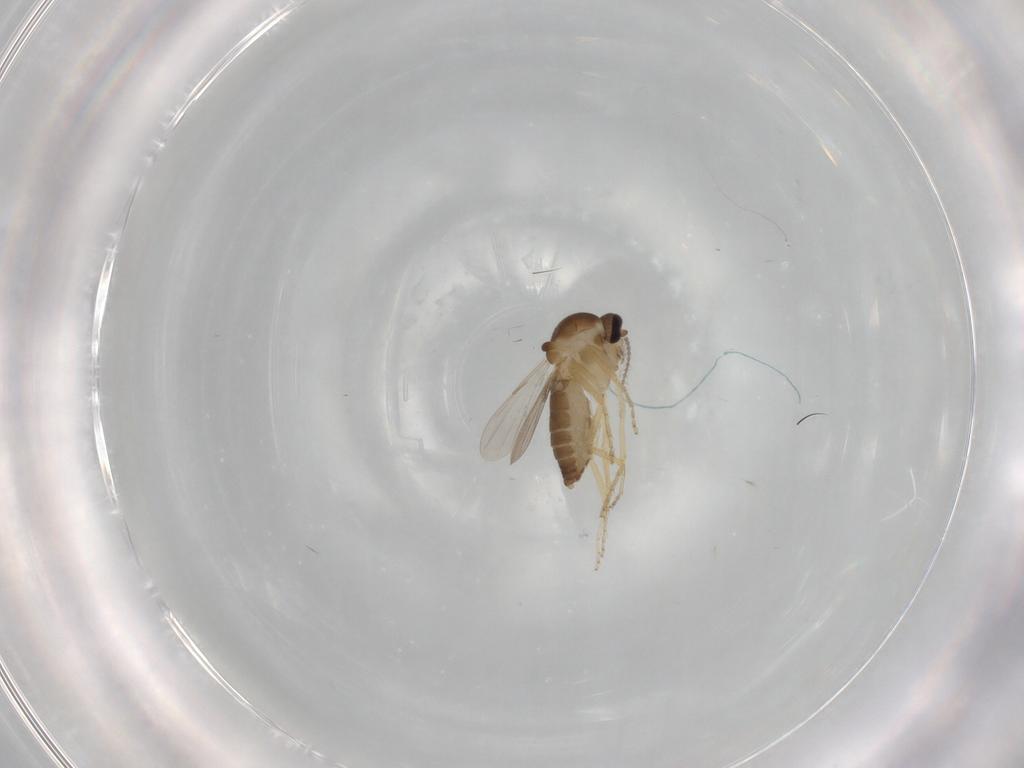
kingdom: Animalia
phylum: Arthropoda
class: Insecta
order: Diptera
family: Ceratopogonidae
